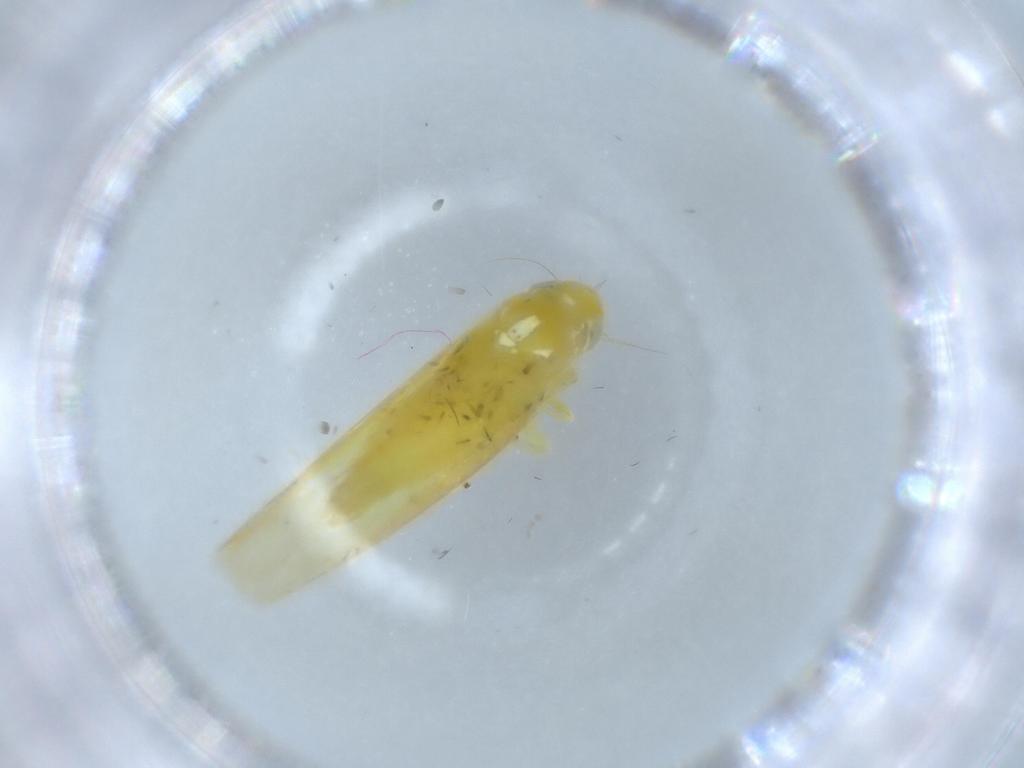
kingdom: Animalia
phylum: Arthropoda
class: Insecta
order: Hemiptera
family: Cicadellidae
